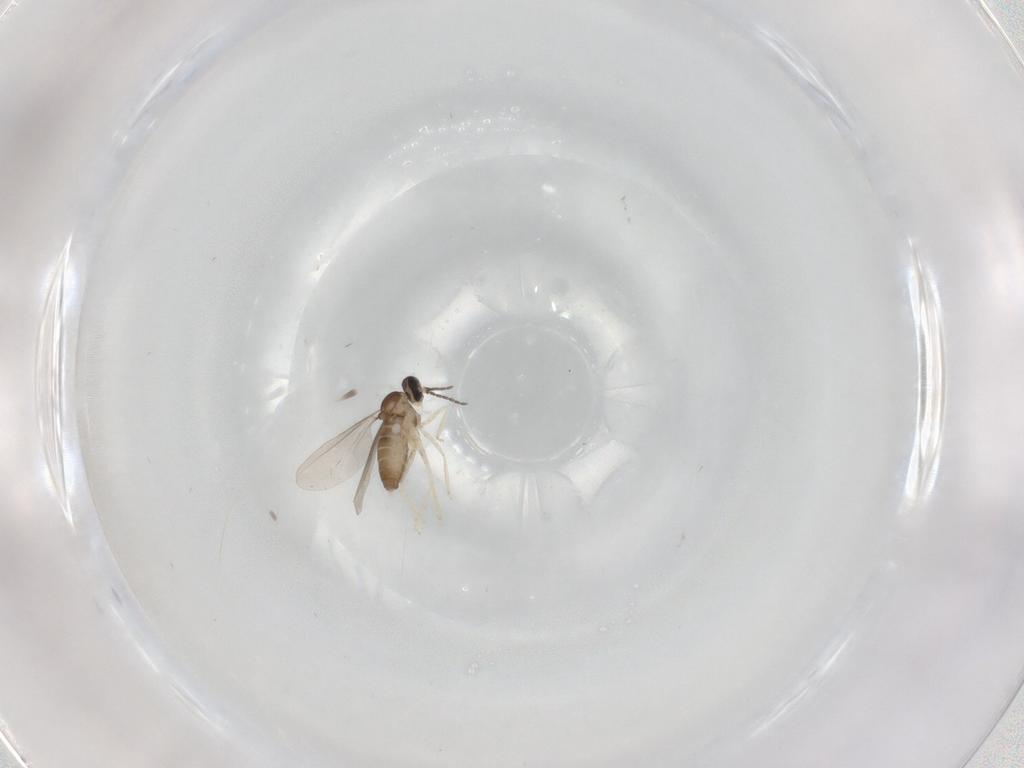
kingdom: Animalia
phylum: Arthropoda
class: Insecta
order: Diptera
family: Cecidomyiidae
